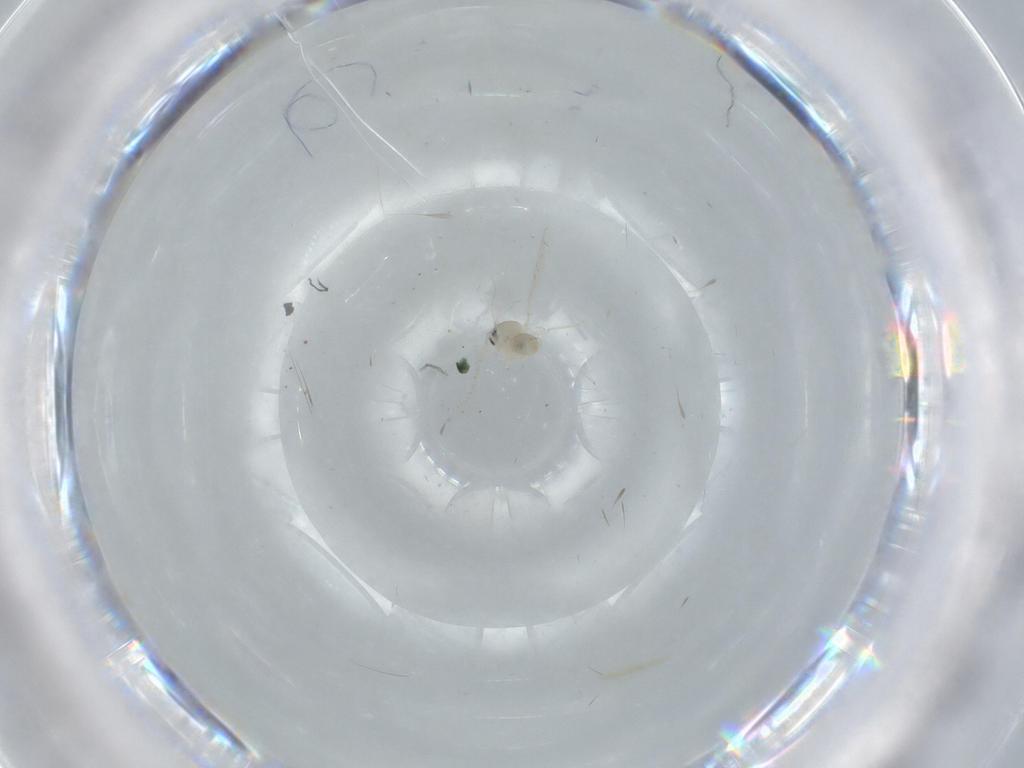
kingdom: Animalia
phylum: Arthropoda
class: Insecta
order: Diptera
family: Cecidomyiidae
